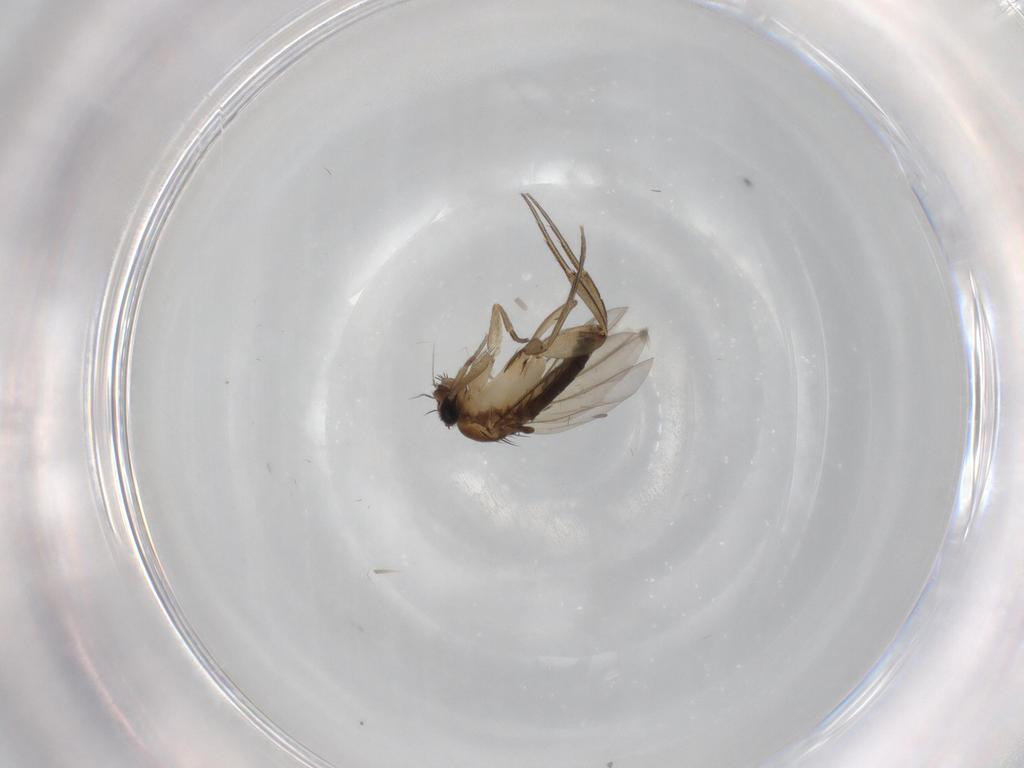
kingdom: Animalia
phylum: Arthropoda
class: Insecta
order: Diptera
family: Phoridae
